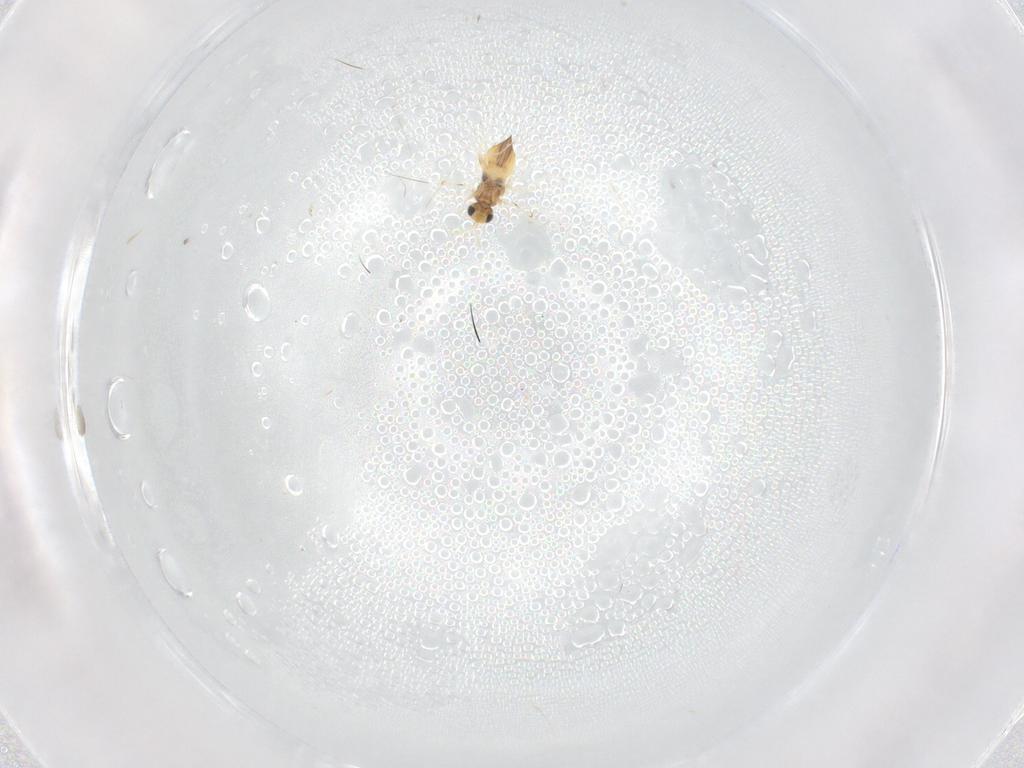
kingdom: Animalia
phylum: Arthropoda
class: Insecta
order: Hymenoptera
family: Trichogrammatidae
